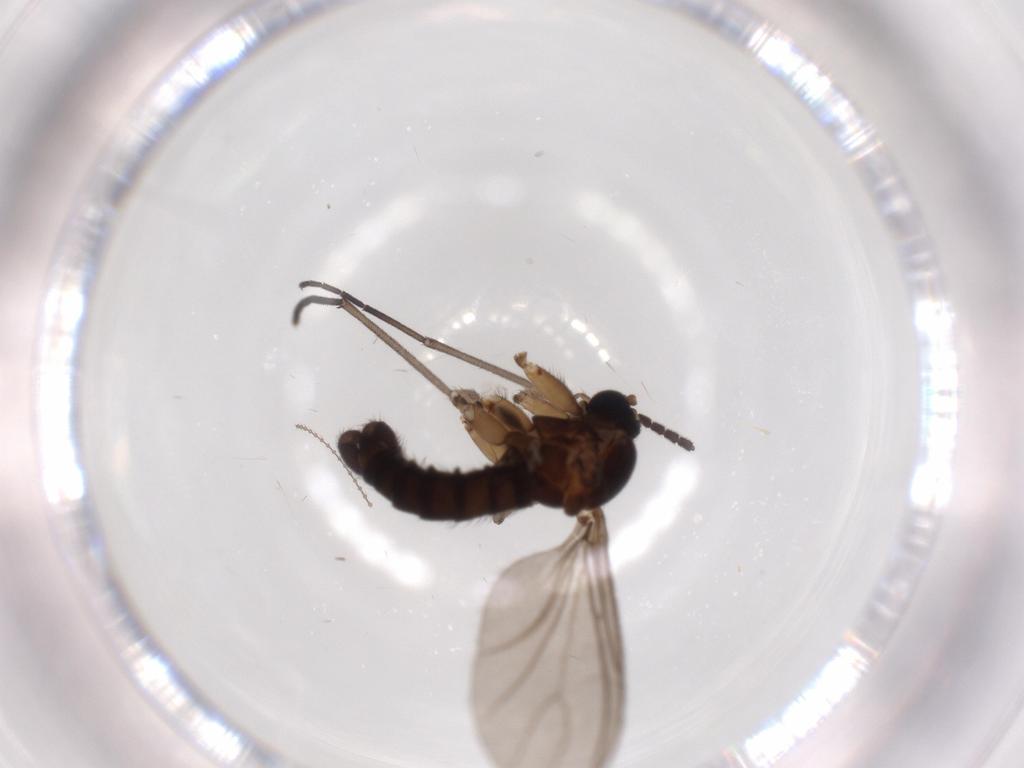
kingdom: Animalia
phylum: Arthropoda
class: Insecta
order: Diptera
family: Sciaridae
